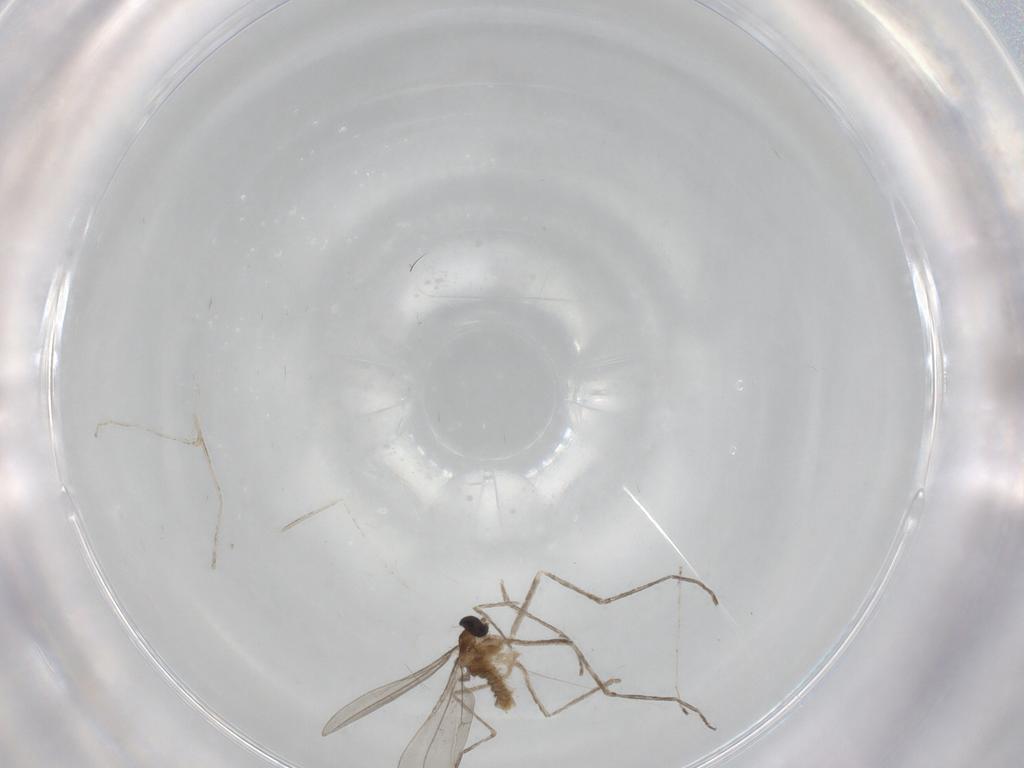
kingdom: Animalia
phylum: Arthropoda
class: Insecta
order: Diptera
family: Cecidomyiidae
